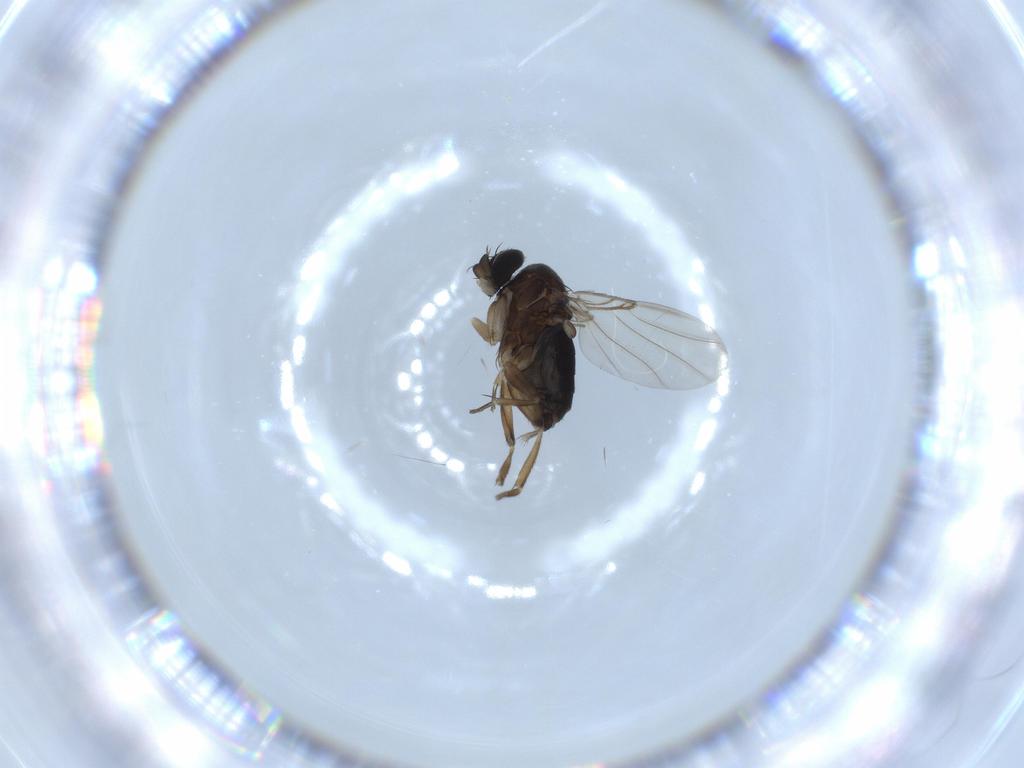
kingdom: Animalia
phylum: Arthropoda
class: Insecta
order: Diptera
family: Phoridae
